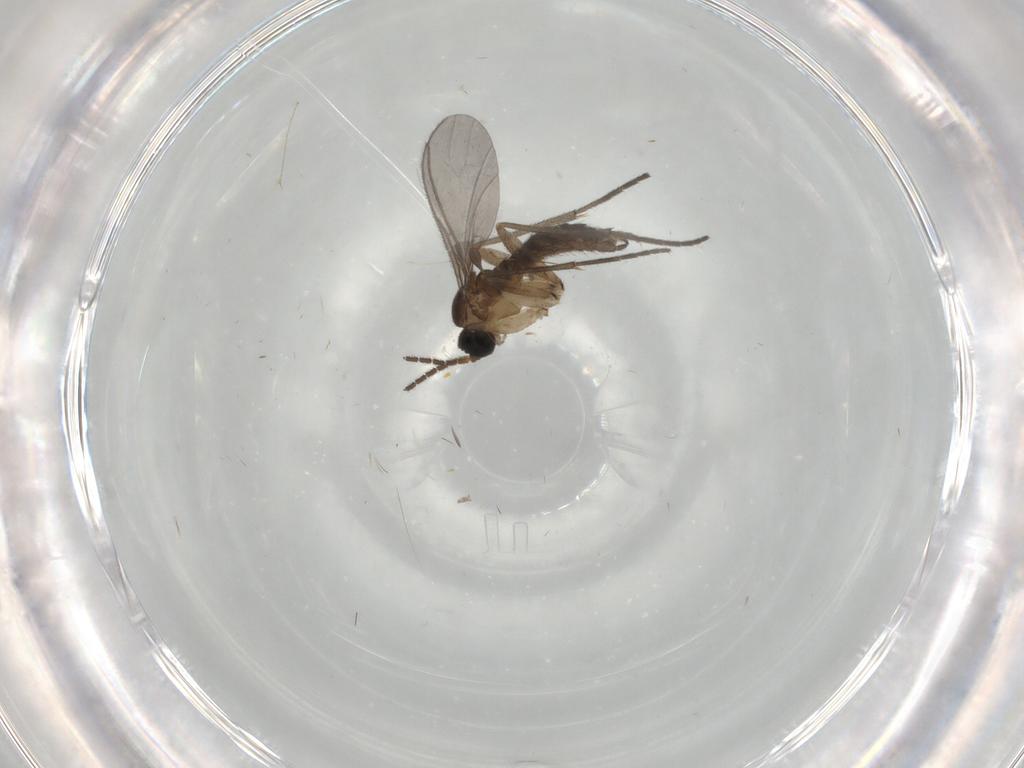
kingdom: Animalia
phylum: Arthropoda
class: Insecta
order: Diptera
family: Sciaridae
